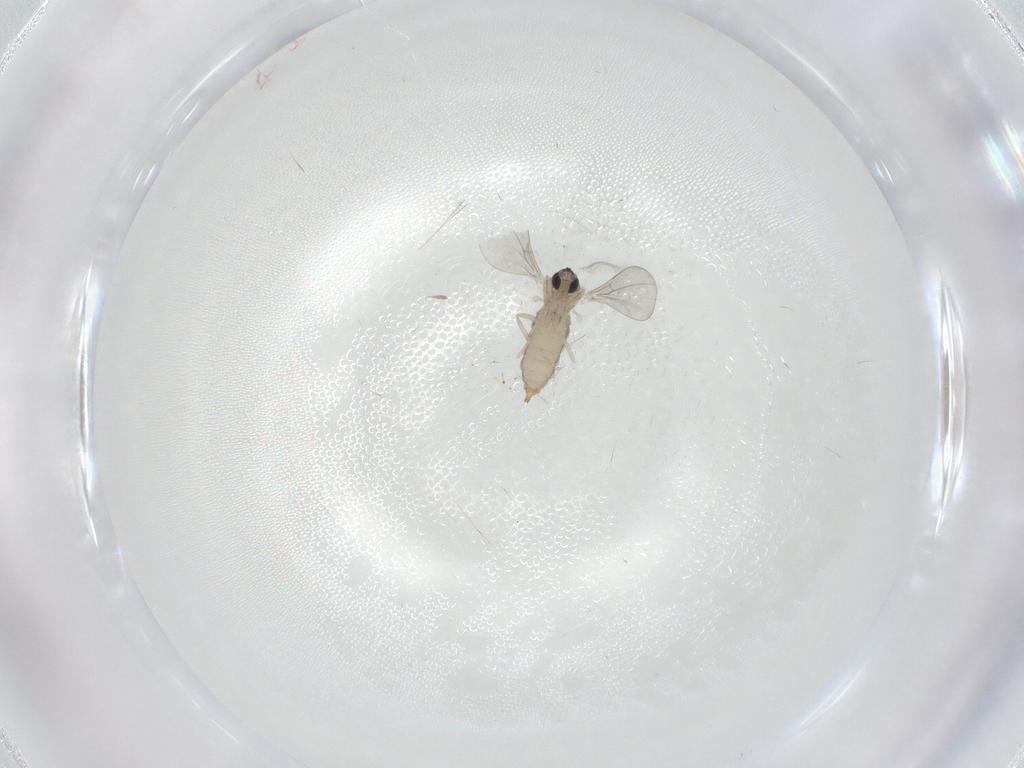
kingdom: Animalia
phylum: Arthropoda
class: Insecta
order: Diptera
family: Cecidomyiidae
